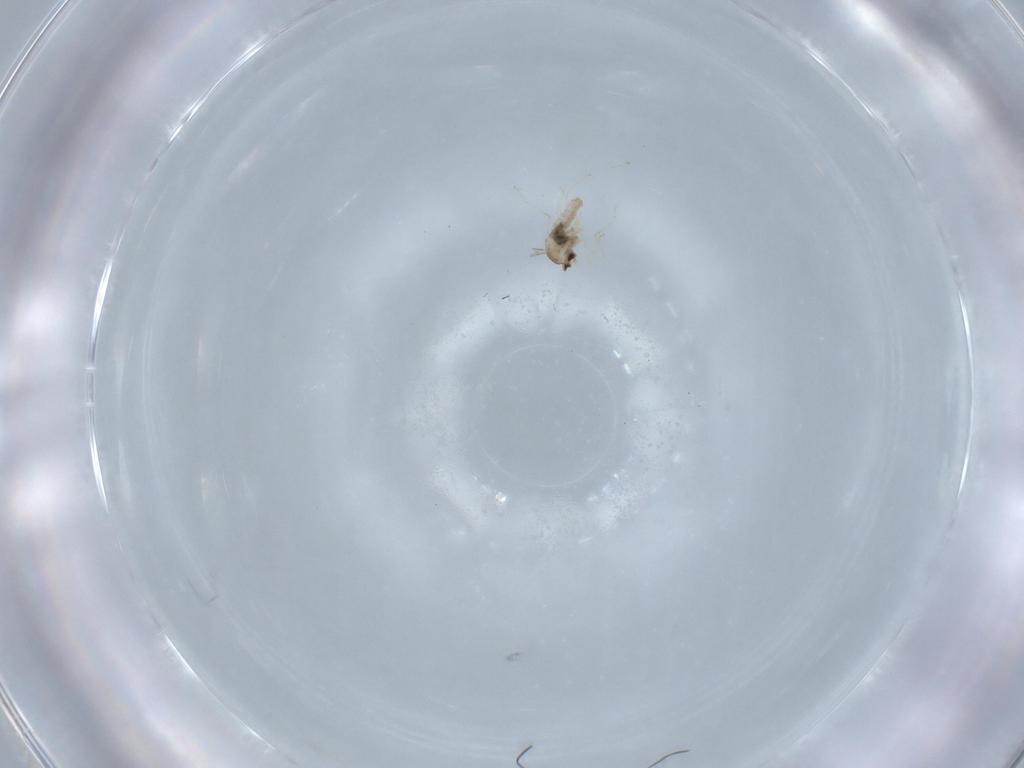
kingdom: Animalia
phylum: Arthropoda
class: Insecta
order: Diptera
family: Cecidomyiidae
